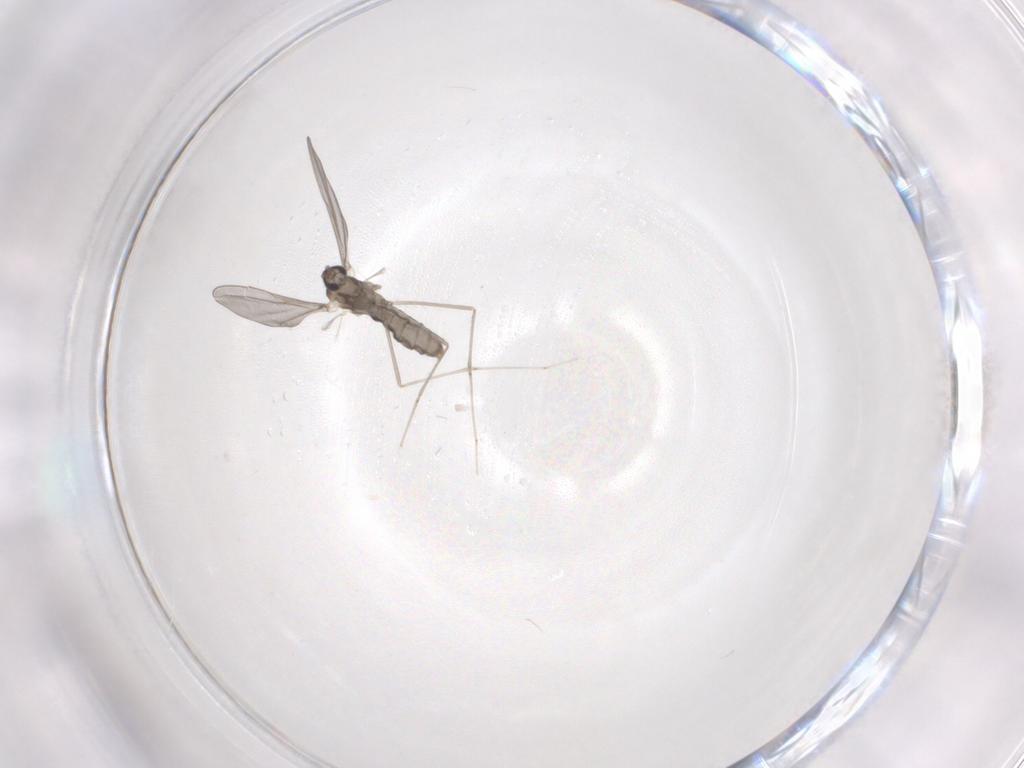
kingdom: Animalia
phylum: Arthropoda
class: Insecta
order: Diptera
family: Cecidomyiidae
